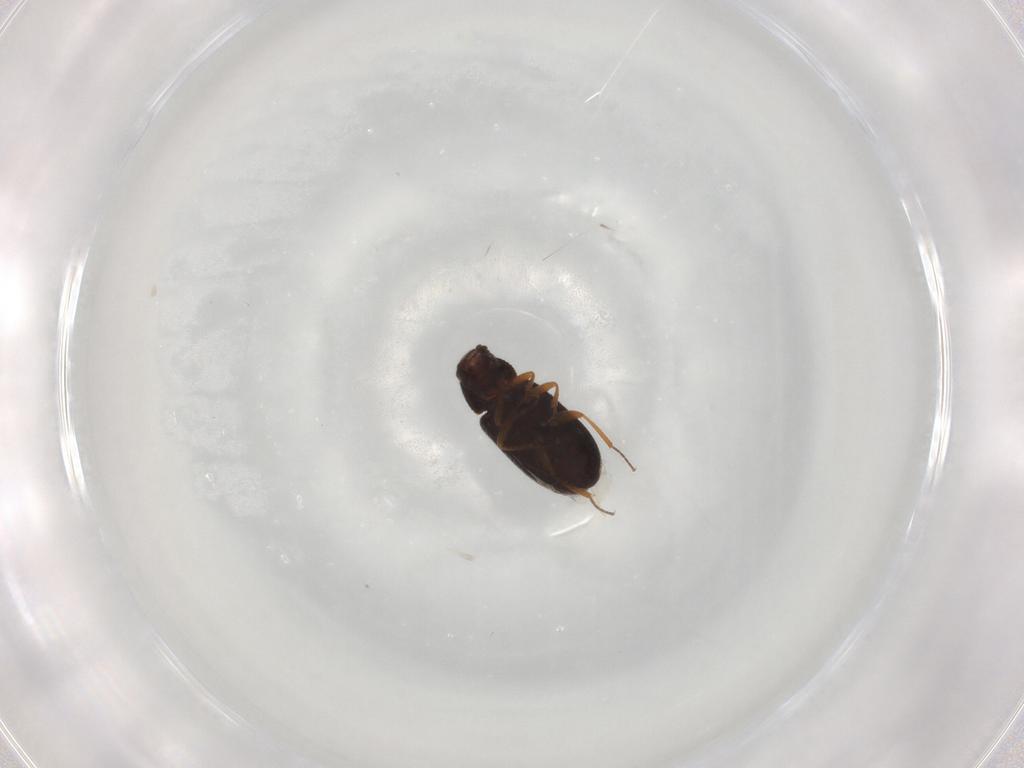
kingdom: Animalia
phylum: Arthropoda
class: Insecta
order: Coleoptera
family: Rhadalidae
